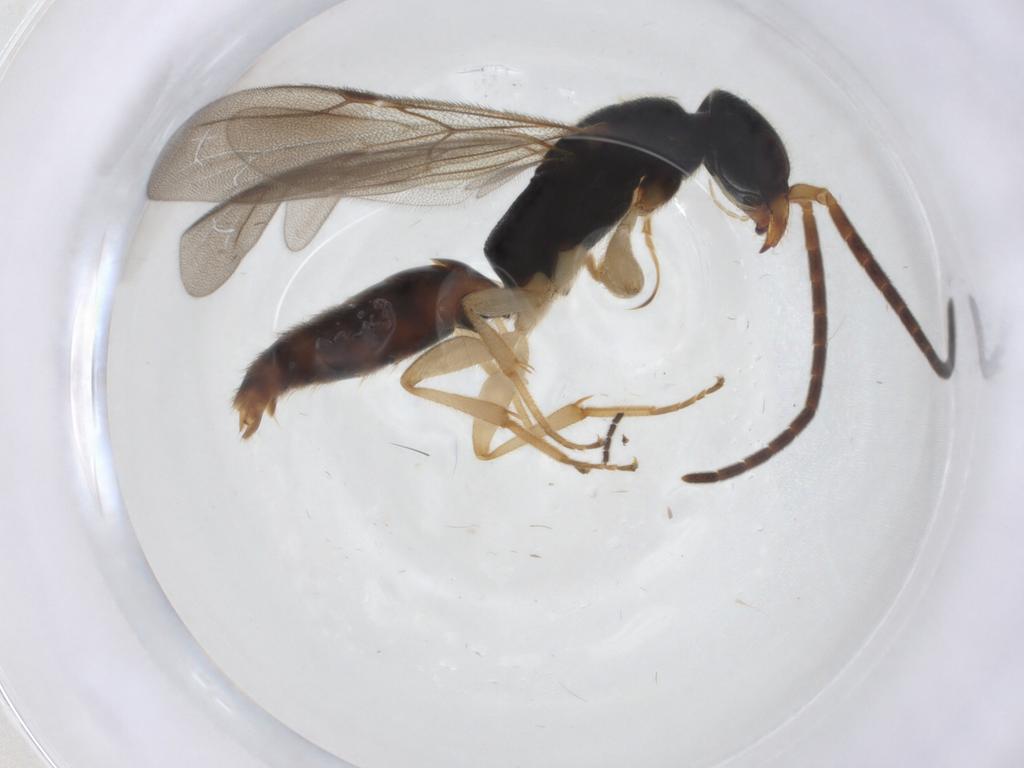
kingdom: Animalia
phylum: Arthropoda
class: Insecta
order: Hymenoptera
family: Bethylidae
